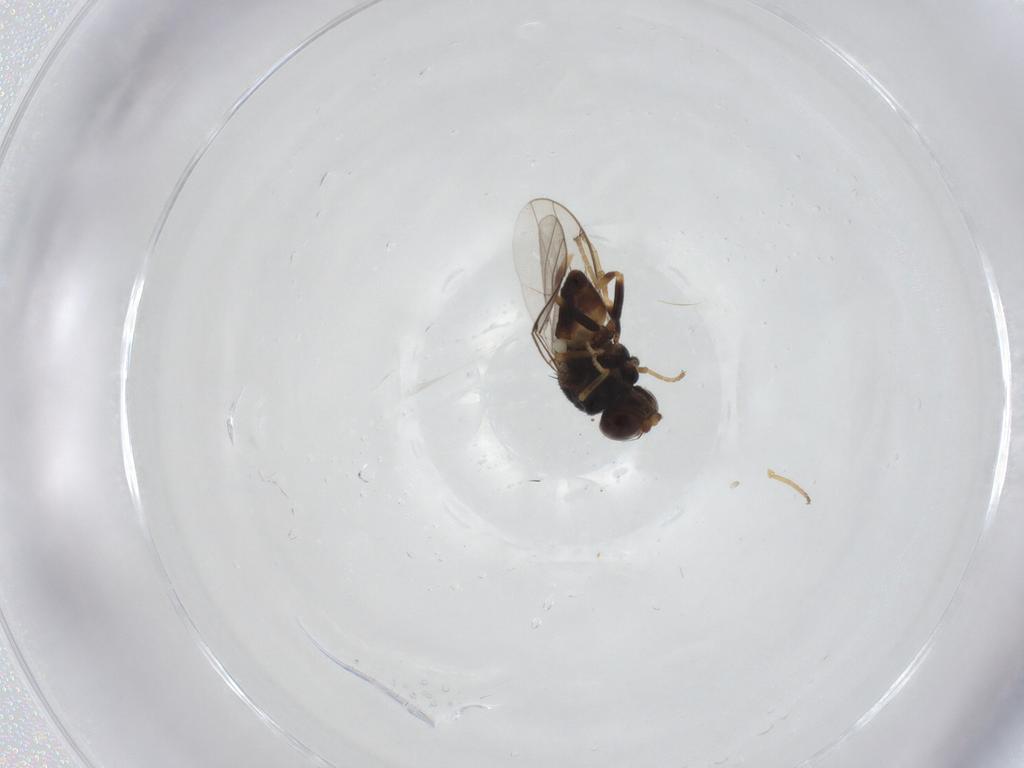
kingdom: Animalia
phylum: Arthropoda
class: Insecta
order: Diptera
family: Chloropidae
